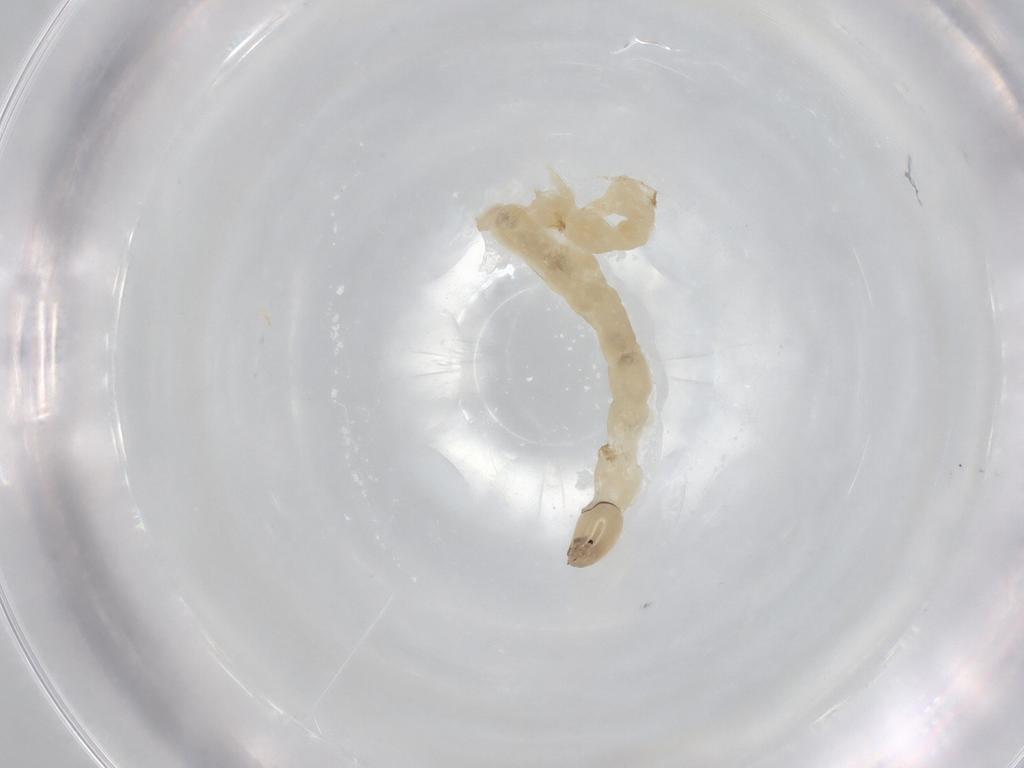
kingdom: Animalia
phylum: Arthropoda
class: Insecta
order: Diptera
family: Chironomidae
